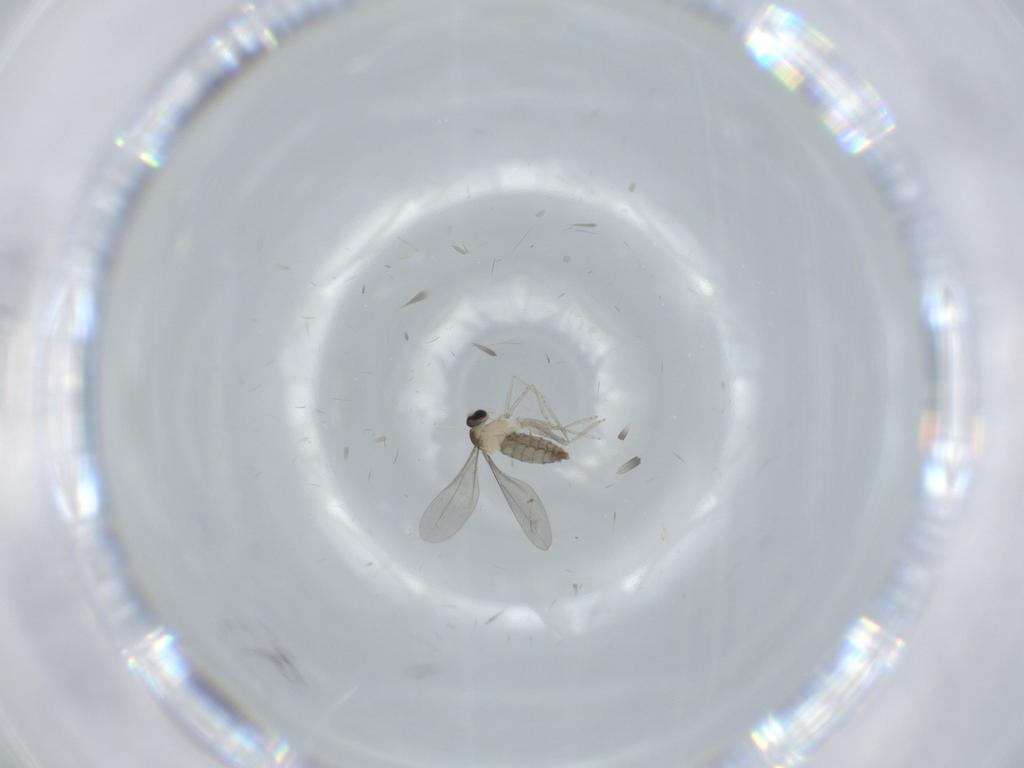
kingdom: Animalia
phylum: Arthropoda
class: Insecta
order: Diptera
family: Cecidomyiidae
